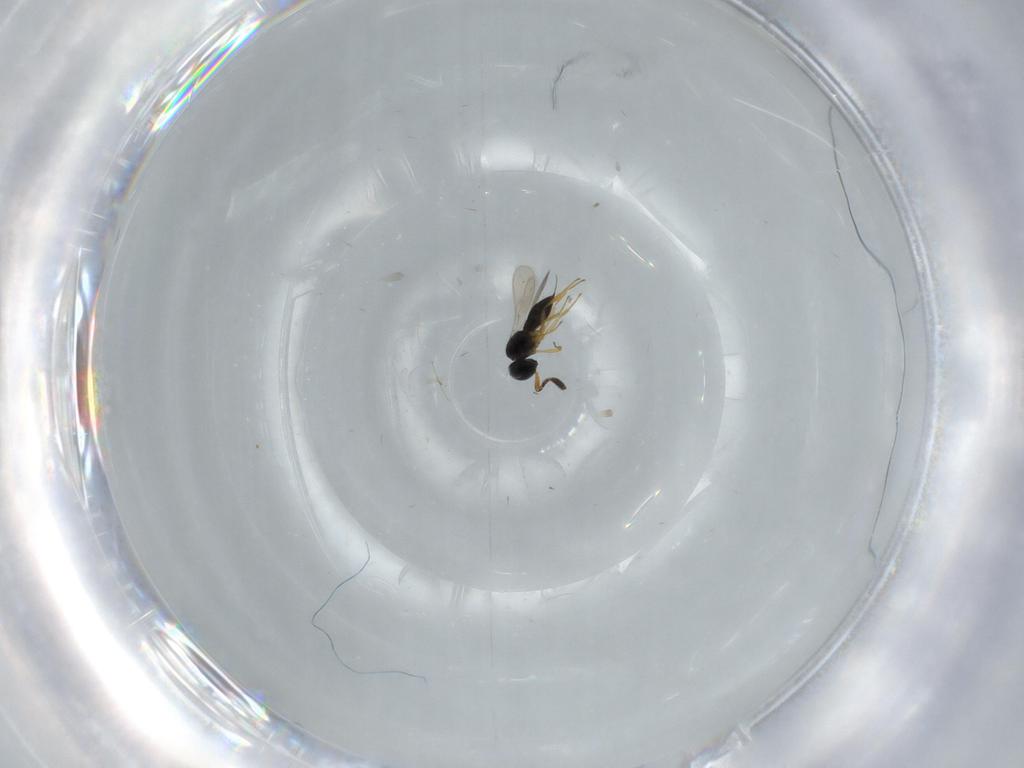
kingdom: Animalia
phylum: Arthropoda
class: Insecta
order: Hymenoptera
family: Scelionidae
